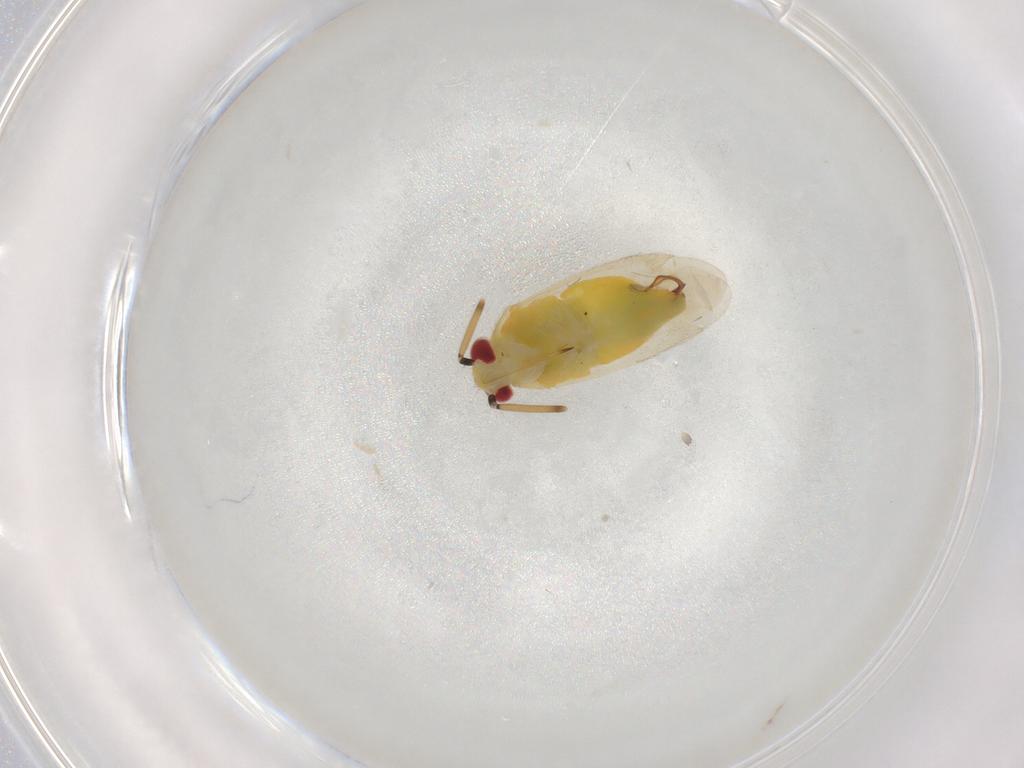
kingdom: Animalia
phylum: Arthropoda
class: Insecta
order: Hemiptera
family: Miridae
